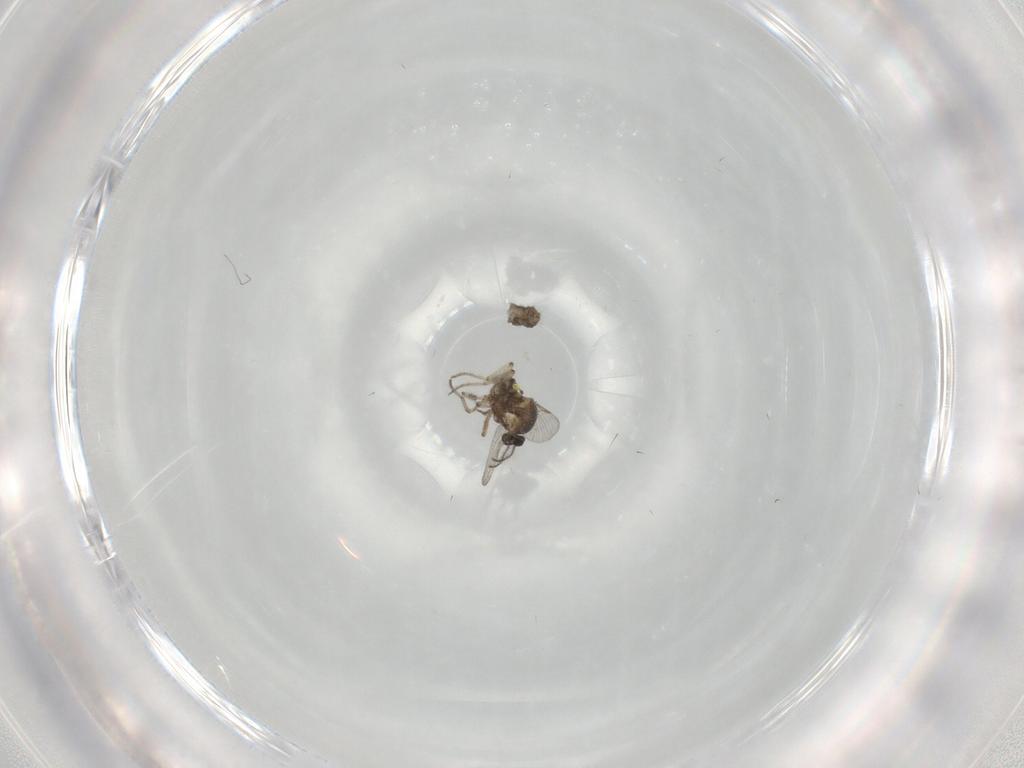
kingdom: Animalia
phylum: Arthropoda
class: Insecta
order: Diptera
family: Ceratopogonidae
